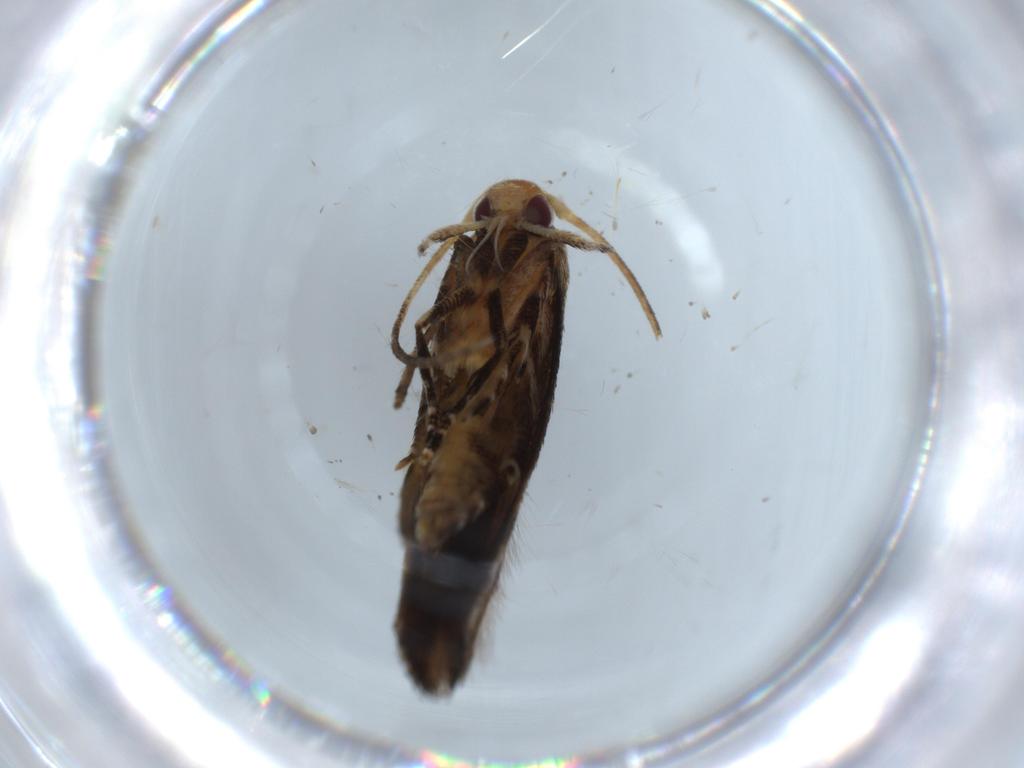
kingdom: Animalia
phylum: Arthropoda
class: Insecta
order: Lepidoptera
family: Momphidae
